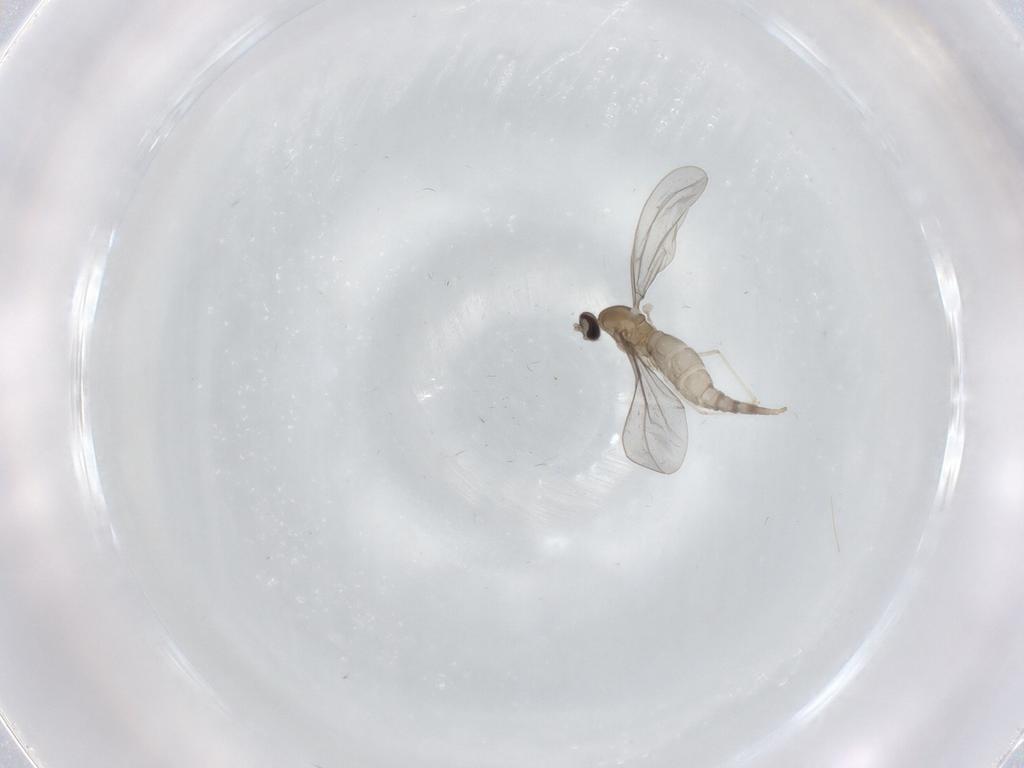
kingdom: Animalia
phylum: Arthropoda
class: Insecta
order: Diptera
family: Cecidomyiidae
